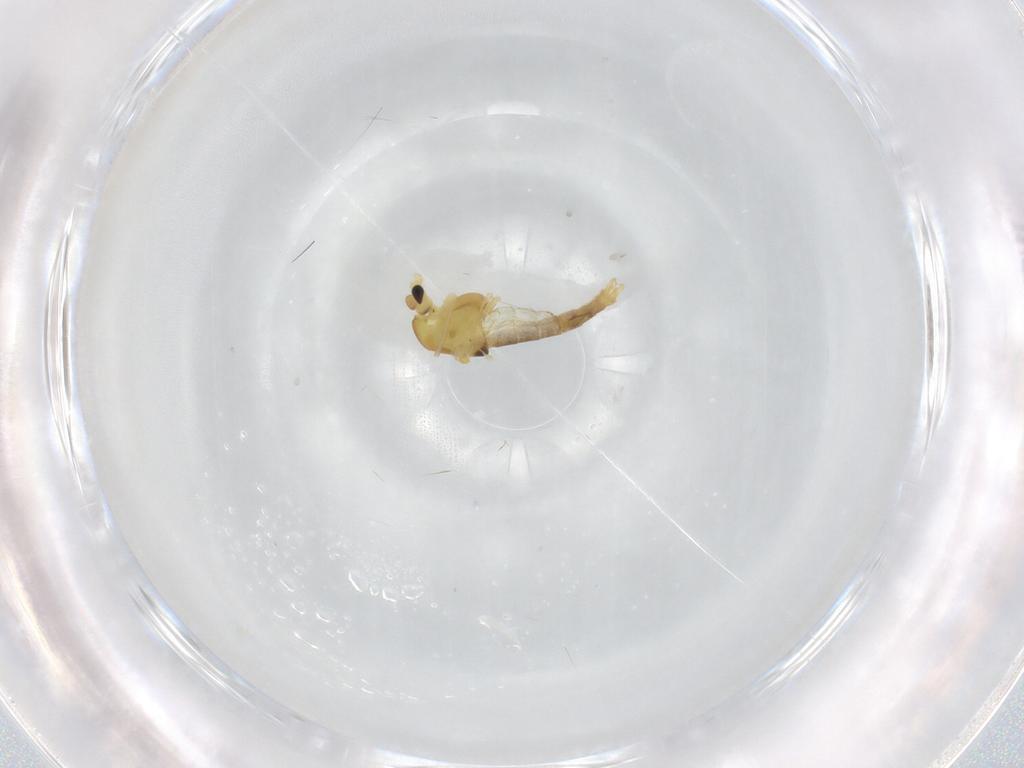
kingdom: Animalia
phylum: Arthropoda
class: Insecta
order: Diptera
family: Chironomidae
